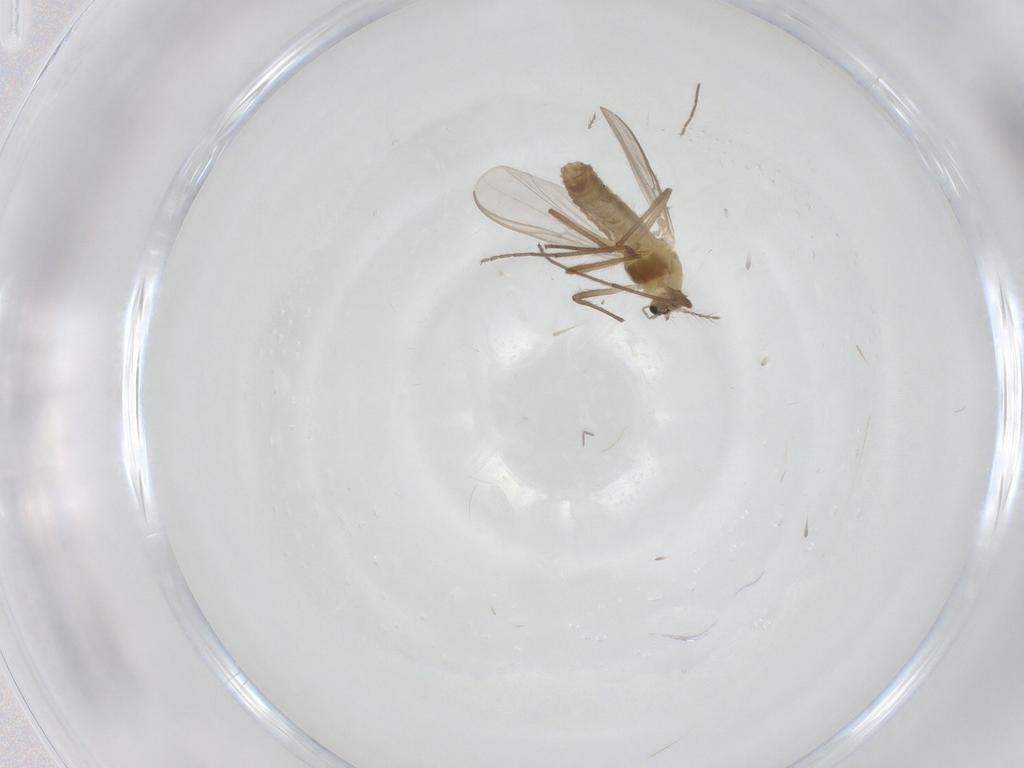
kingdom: Animalia
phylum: Arthropoda
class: Insecta
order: Diptera
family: Chironomidae
